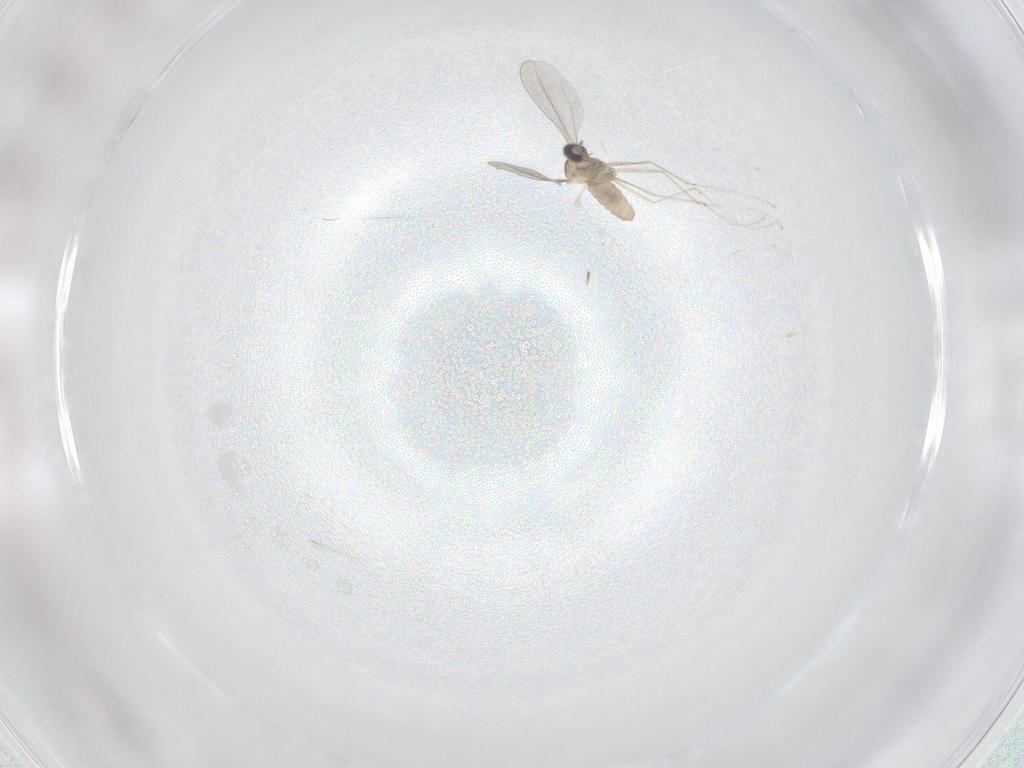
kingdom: Animalia
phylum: Arthropoda
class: Insecta
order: Diptera
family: Cecidomyiidae
